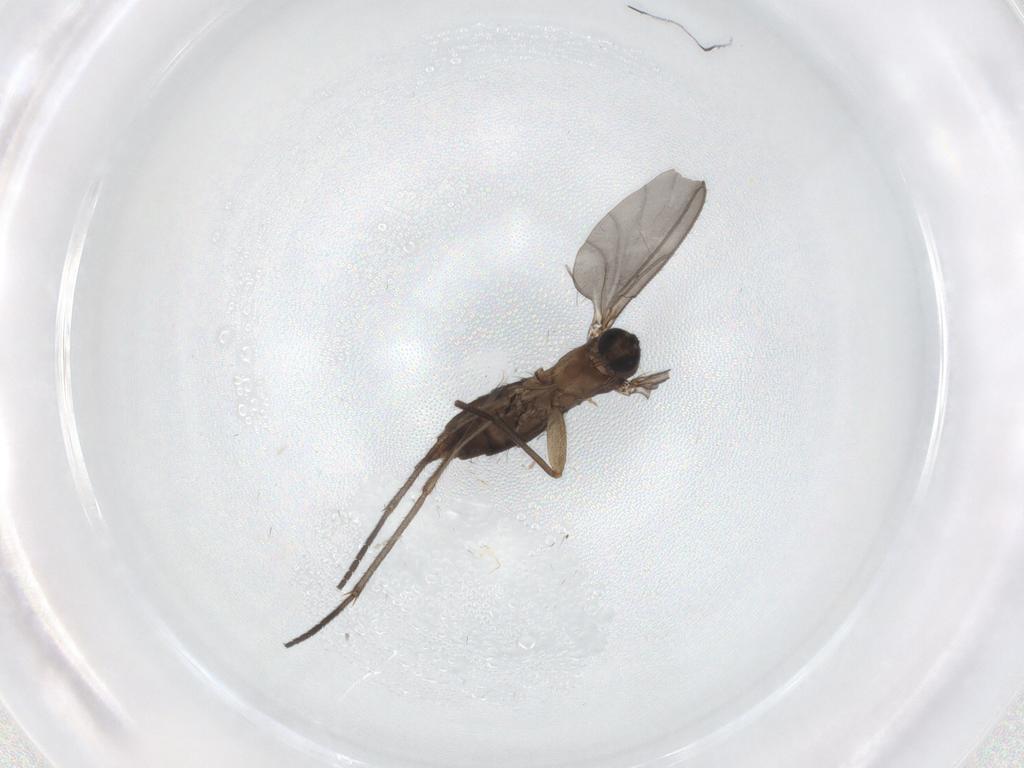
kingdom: Animalia
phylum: Arthropoda
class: Insecta
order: Diptera
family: Chironomidae
